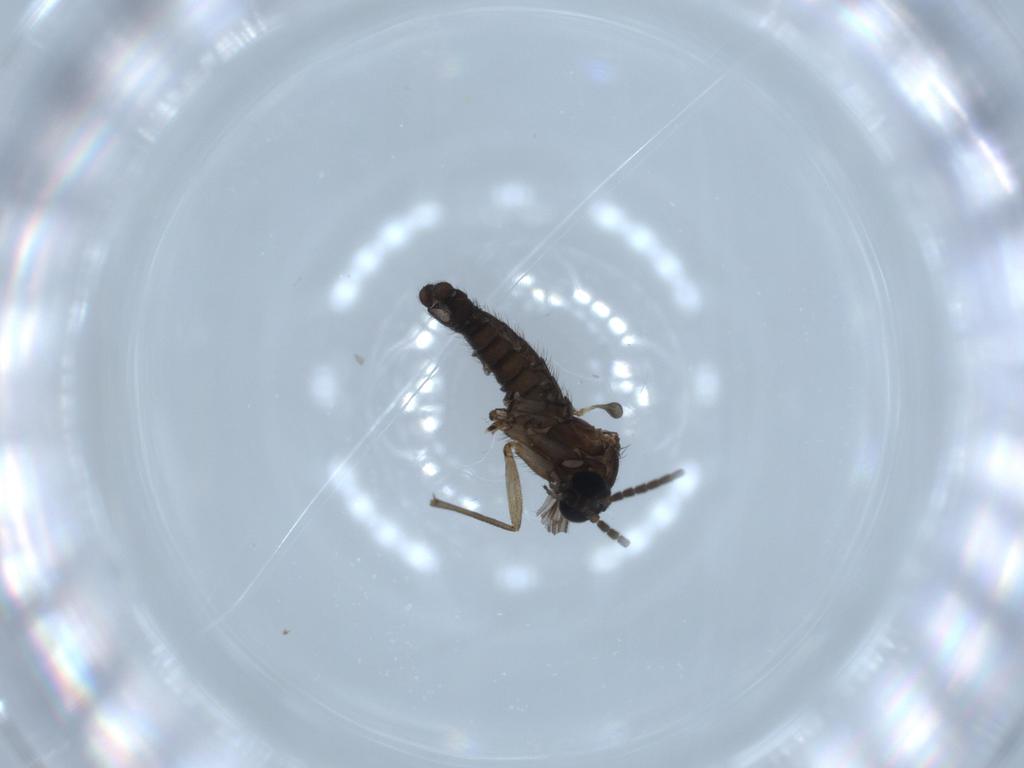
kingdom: Animalia
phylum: Arthropoda
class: Insecta
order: Diptera
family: Sciaridae
